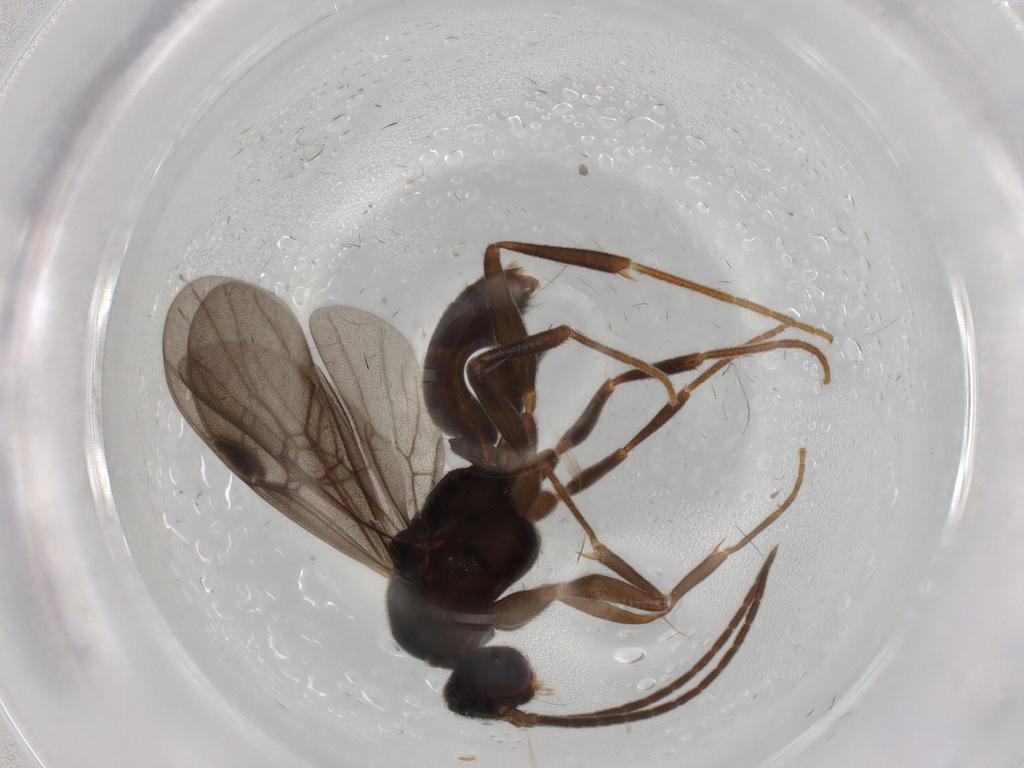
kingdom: Animalia
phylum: Arthropoda
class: Insecta
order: Hymenoptera
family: Formicidae
